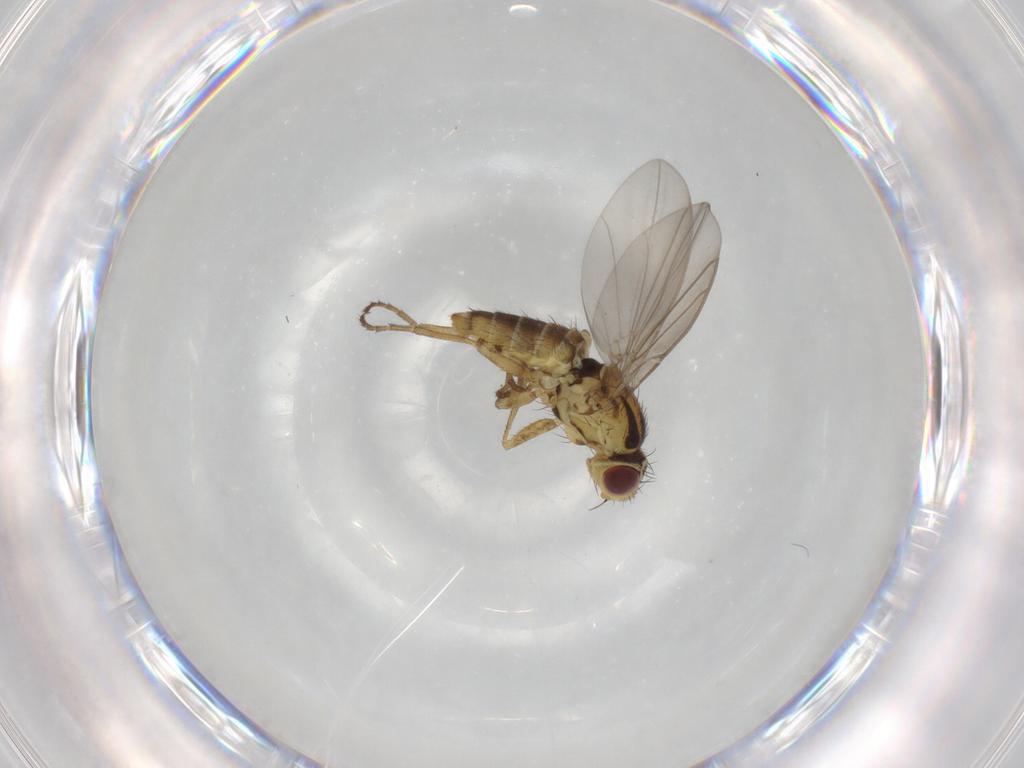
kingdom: Animalia
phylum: Arthropoda
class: Insecta
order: Diptera
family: Agromyzidae
